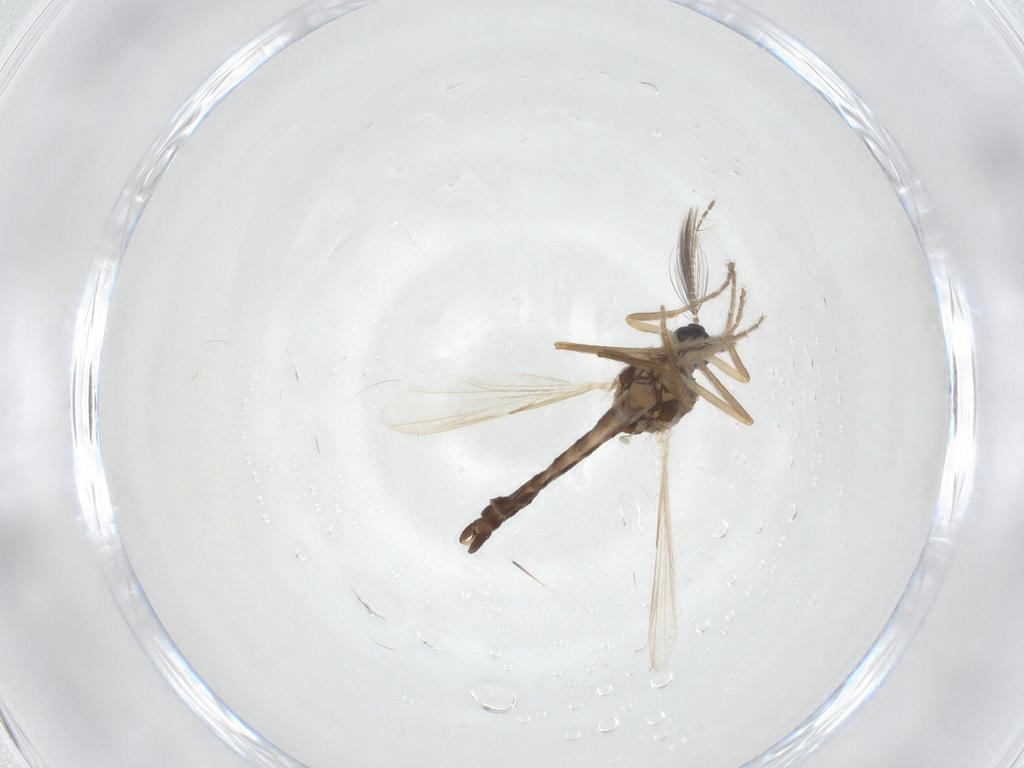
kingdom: Animalia
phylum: Arthropoda
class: Insecta
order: Diptera
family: Ceratopogonidae
